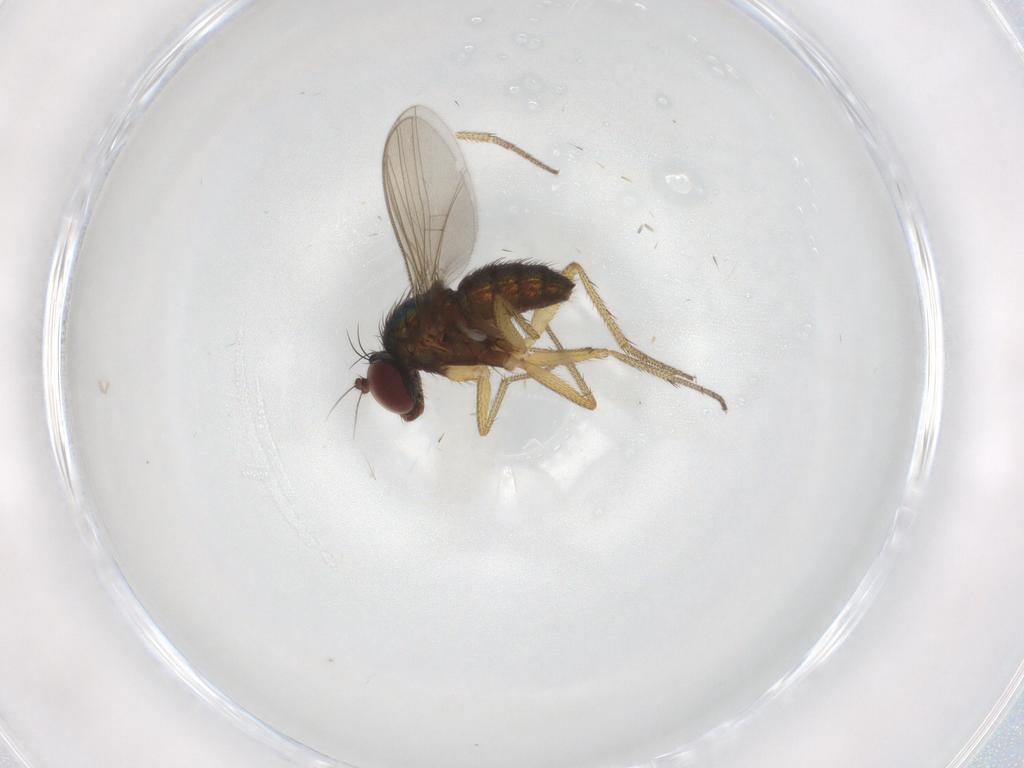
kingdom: Animalia
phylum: Arthropoda
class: Insecta
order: Diptera
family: Dolichopodidae
